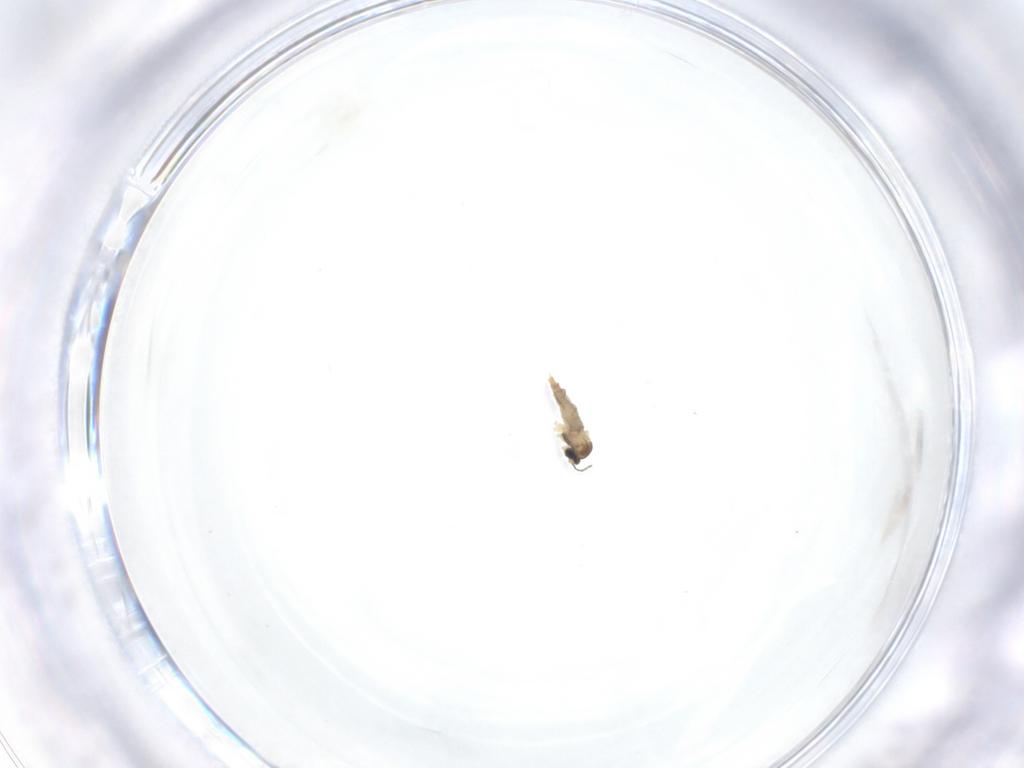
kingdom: Animalia
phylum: Arthropoda
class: Insecta
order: Diptera
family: Ceratopogonidae
